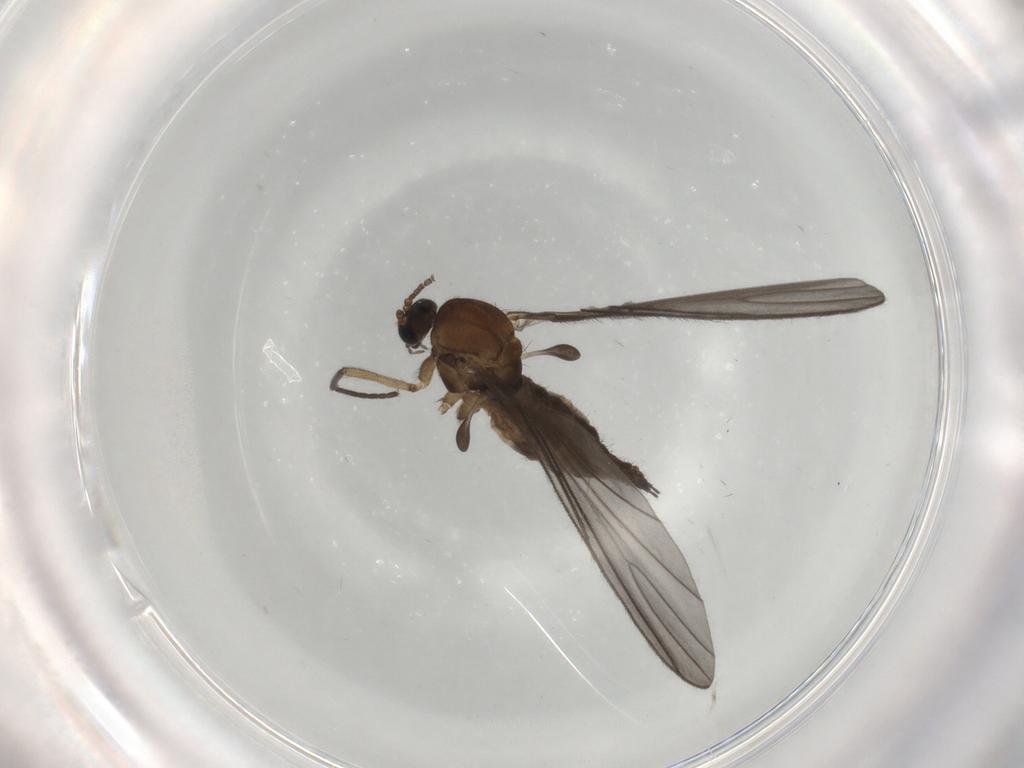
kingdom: Animalia
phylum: Arthropoda
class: Insecta
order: Diptera
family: Sciaridae
